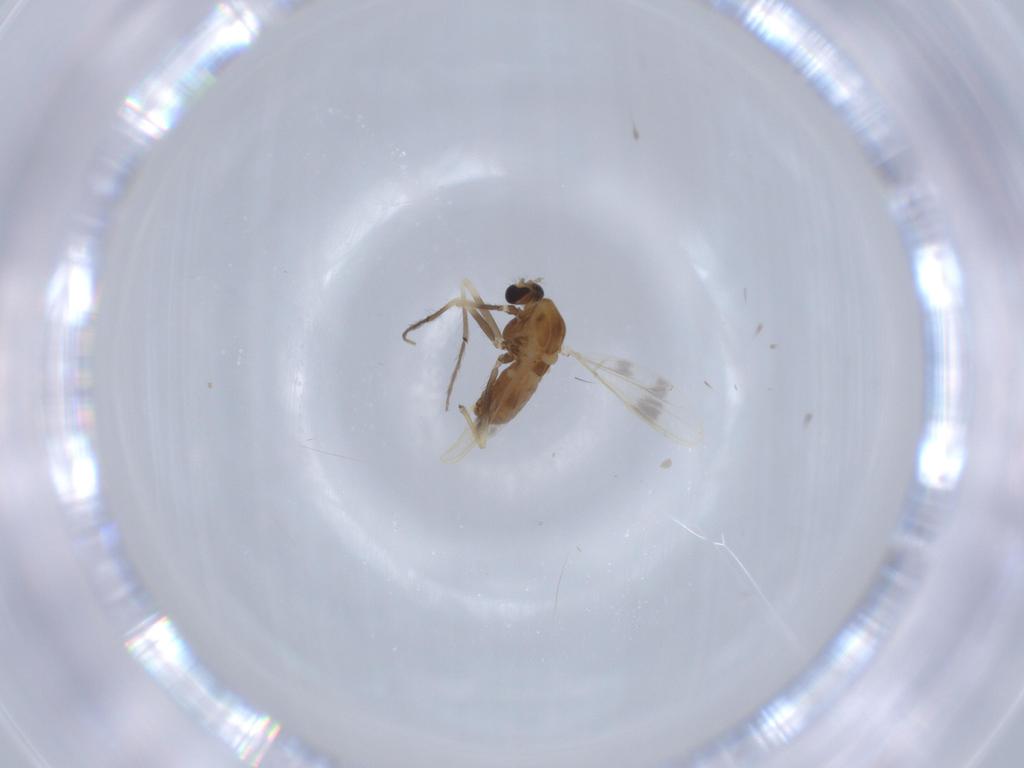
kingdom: Animalia
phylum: Arthropoda
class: Insecta
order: Diptera
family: Chironomidae
